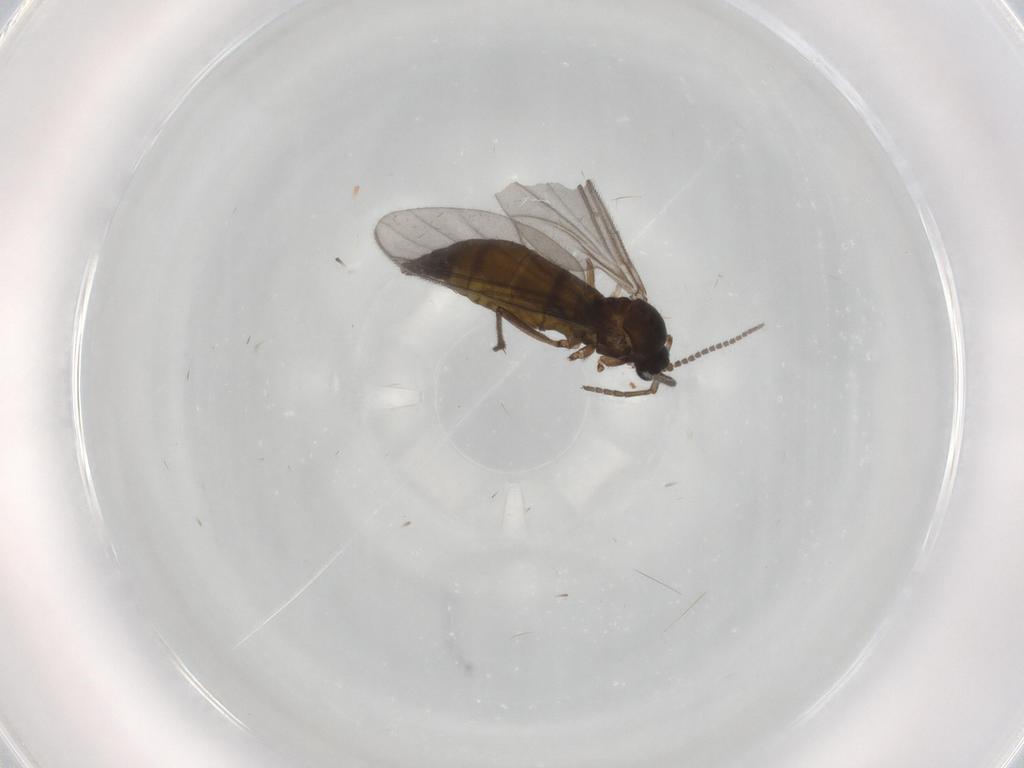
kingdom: Animalia
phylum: Arthropoda
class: Insecta
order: Diptera
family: Sciaridae
